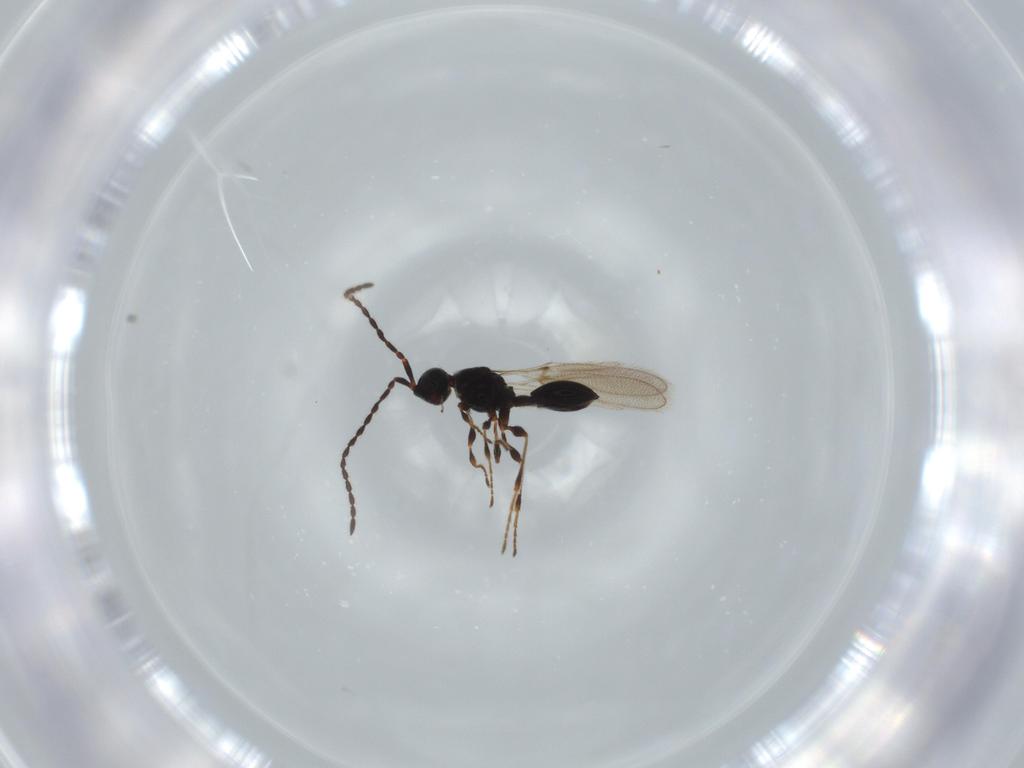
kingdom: Animalia
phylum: Arthropoda
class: Insecta
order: Hymenoptera
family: Diapriidae
